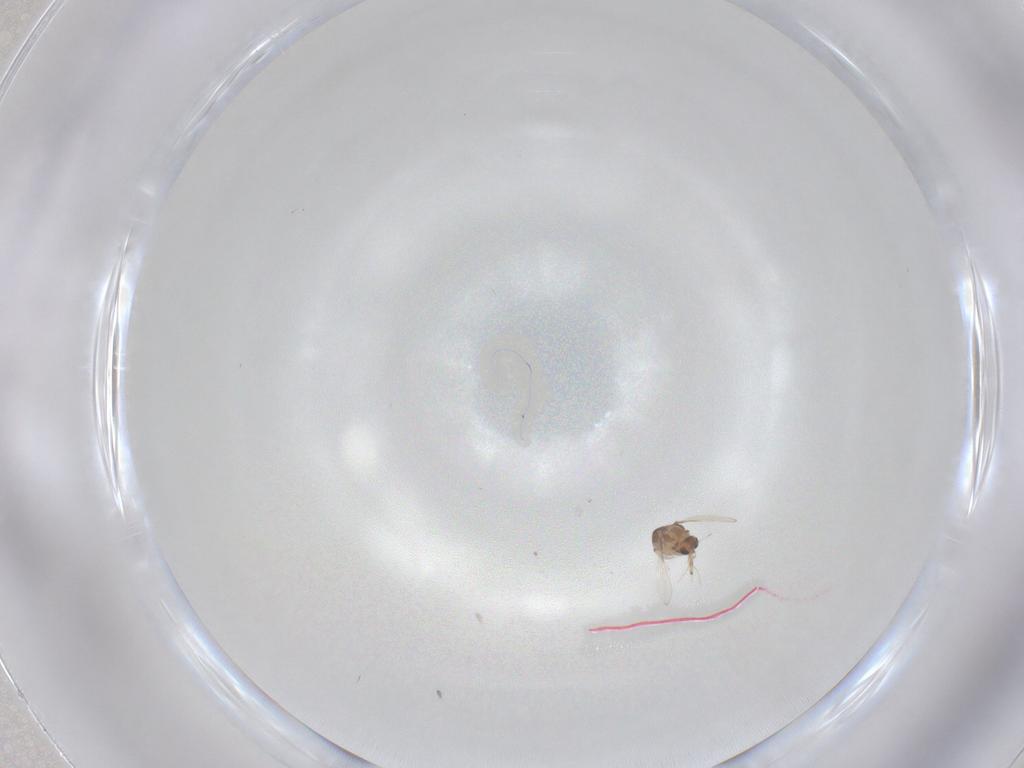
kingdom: Animalia
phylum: Arthropoda
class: Insecta
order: Diptera
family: Chironomidae
